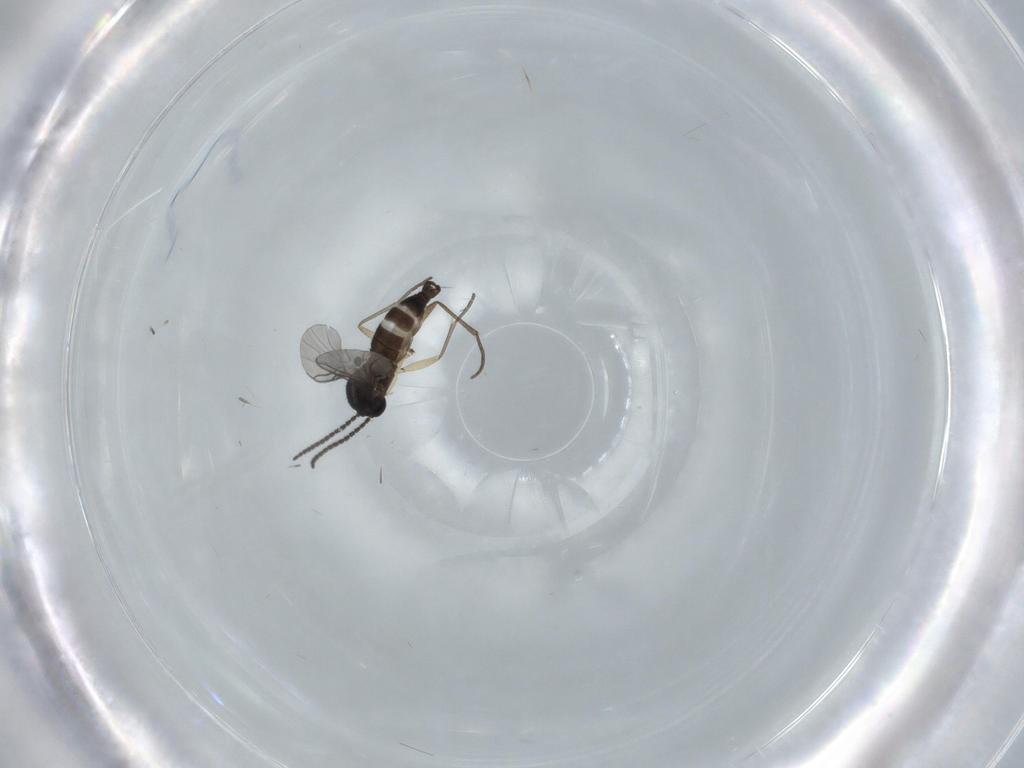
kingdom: Animalia
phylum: Arthropoda
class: Insecta
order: Diptera
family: Sciaridae
